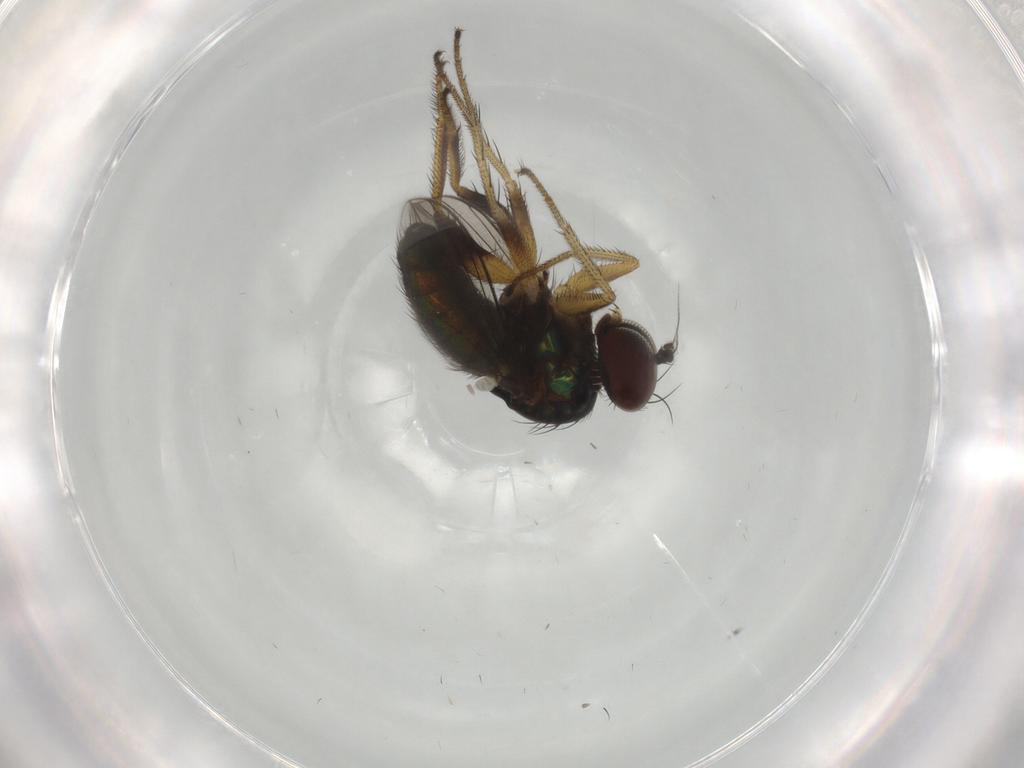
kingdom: Animalia
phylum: Arthropoda
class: Insecta
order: Diptera
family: Dolichopodidae
